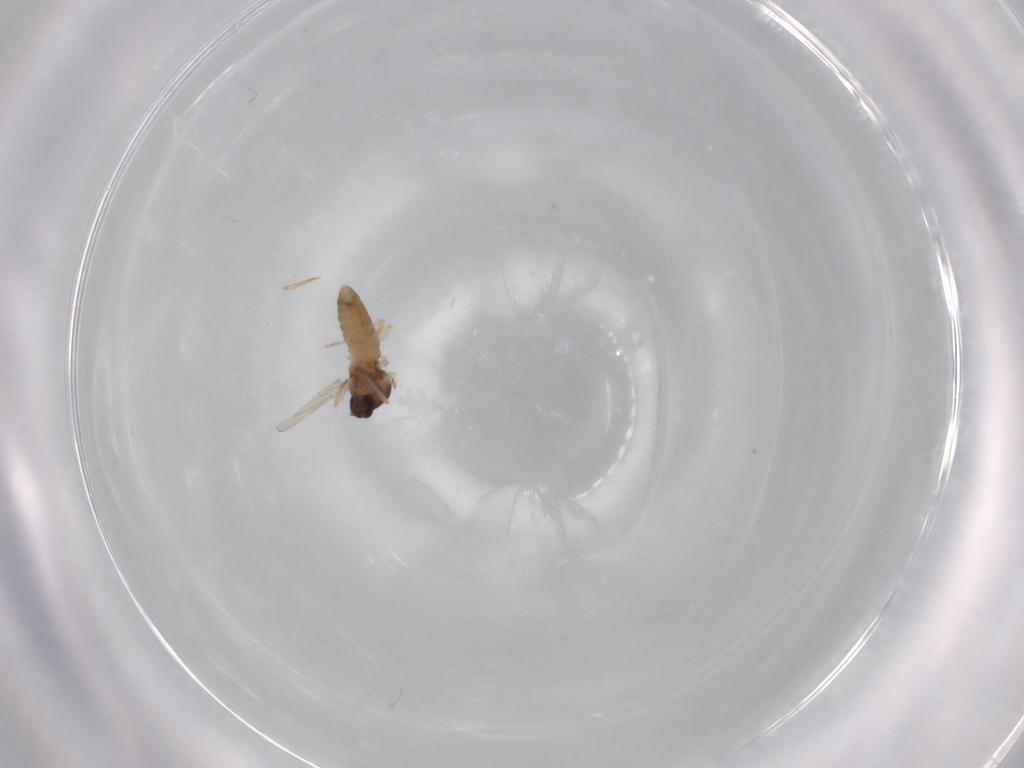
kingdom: Animalia
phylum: Arthropoda
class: Insecta
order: Diptera
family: Ceratopogonidae
